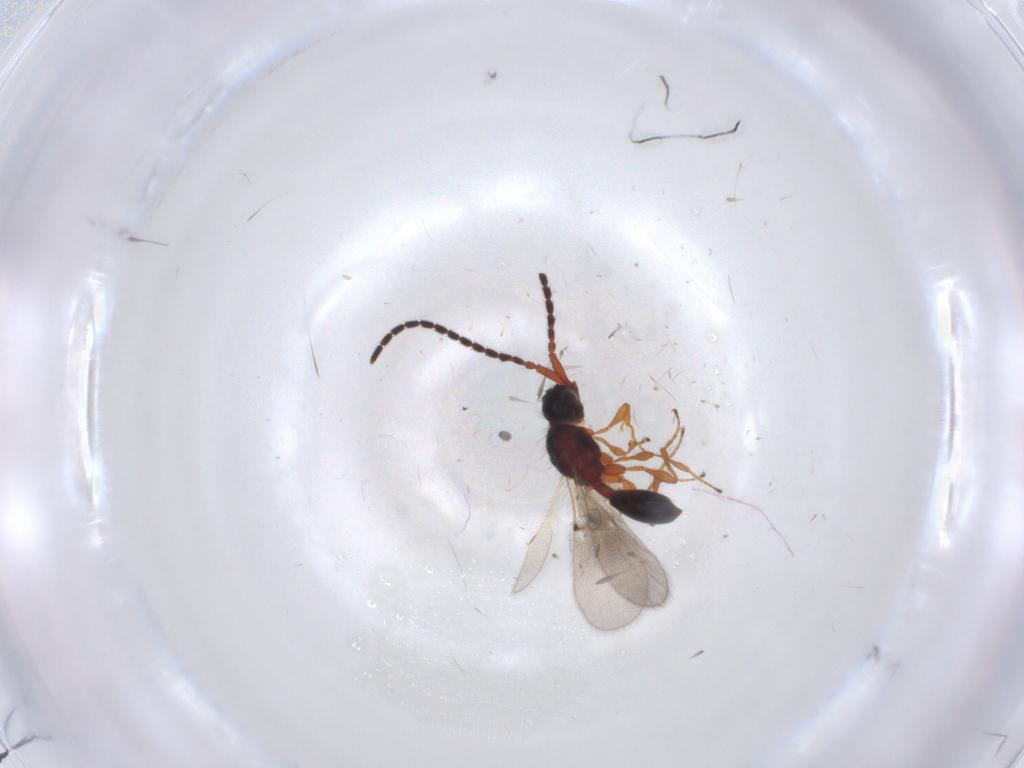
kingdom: Animalia
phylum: Arthropoda
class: Insecta
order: Hymenoptera
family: Diapriidae
